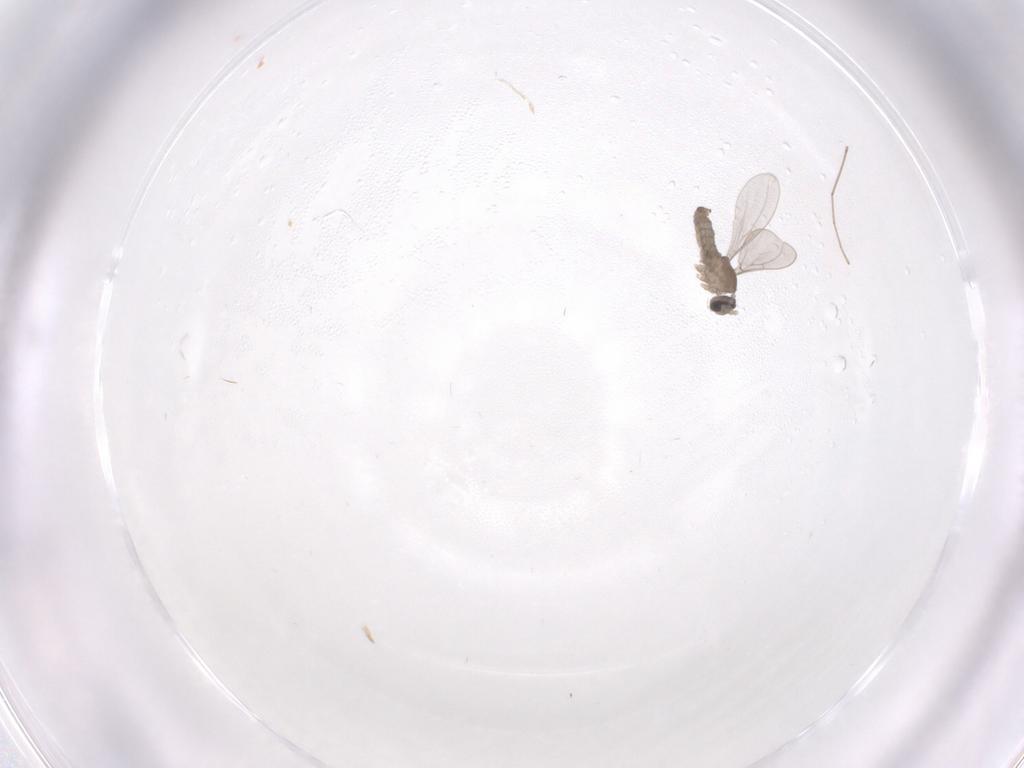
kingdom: Animalia
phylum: Arthropoda
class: Insecta
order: Diptera
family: Cecidomyiidae
